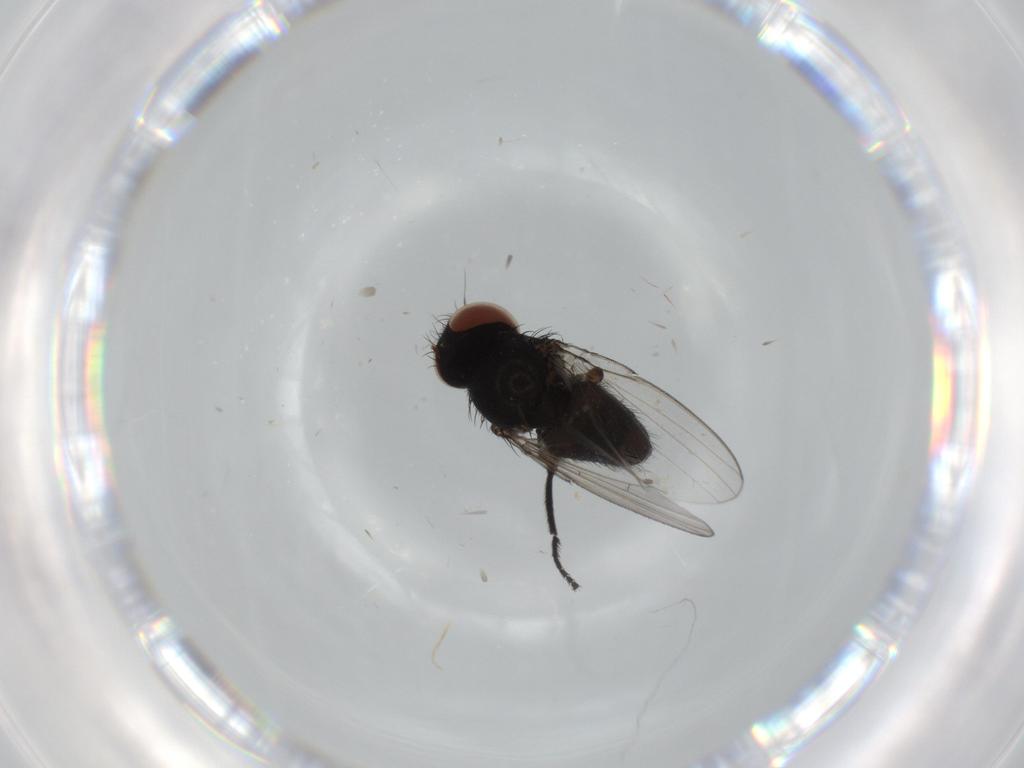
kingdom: Animalia
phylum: Arthropoda
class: Insecta
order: Diptera
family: Milichiidae
